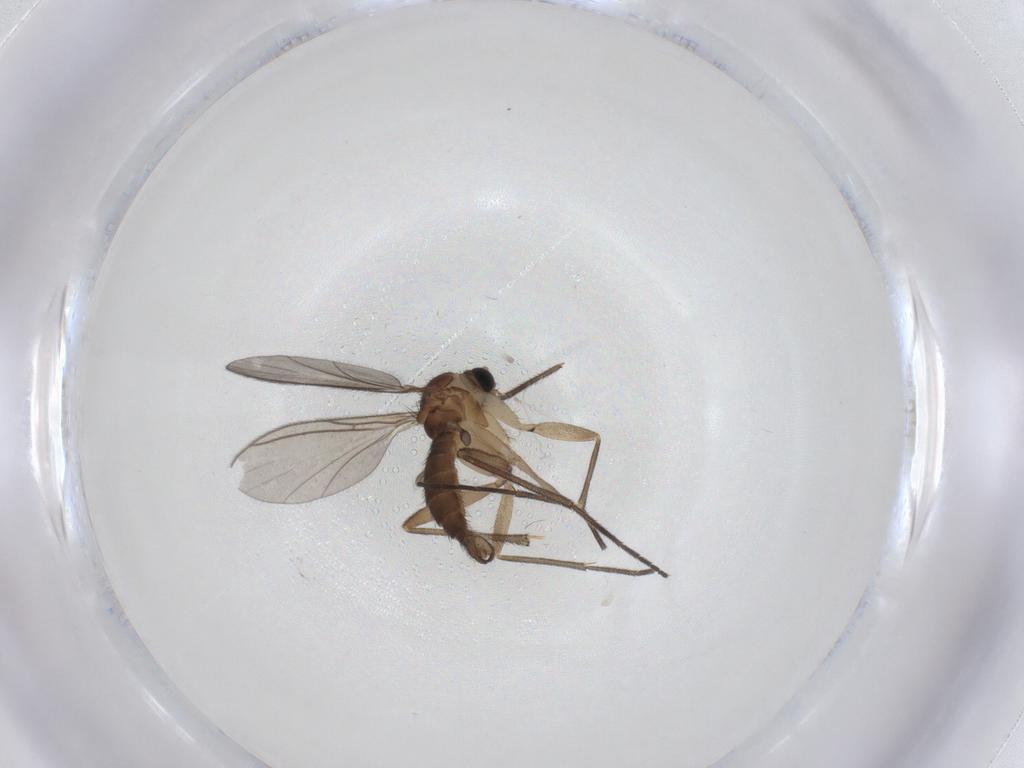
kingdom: Animalia
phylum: Arthropoda
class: Insecta
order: Diptera
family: Psychodidae
